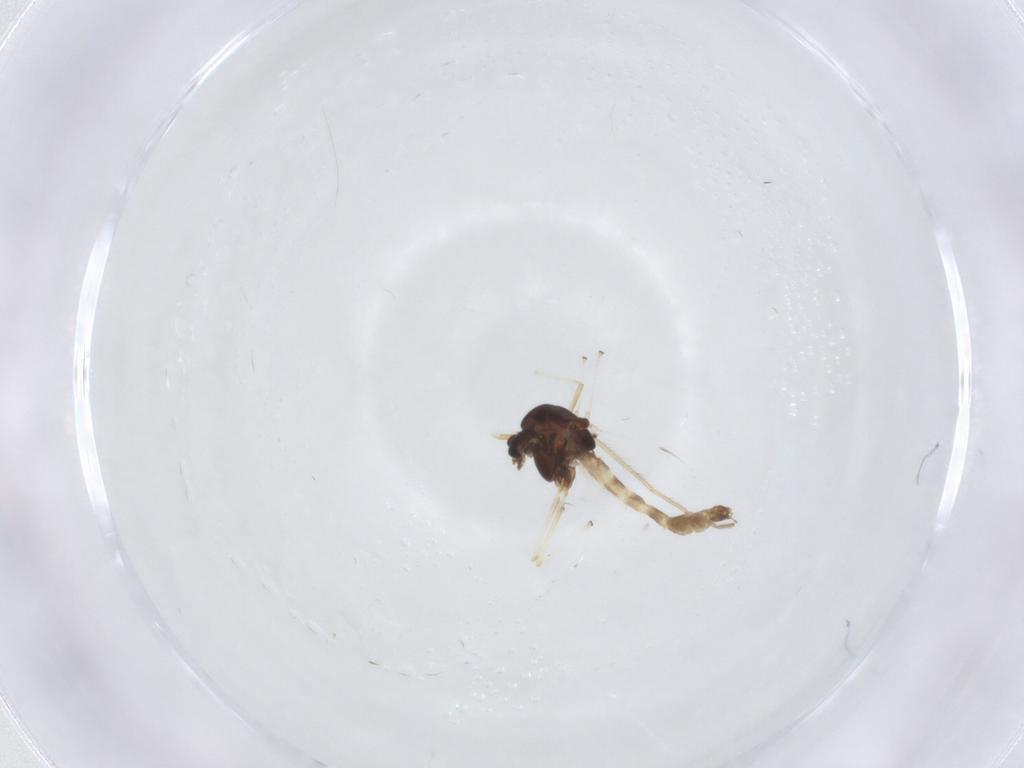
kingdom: Animalia
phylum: Arthropoda
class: Insecta
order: Diptera
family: Chironomidae
